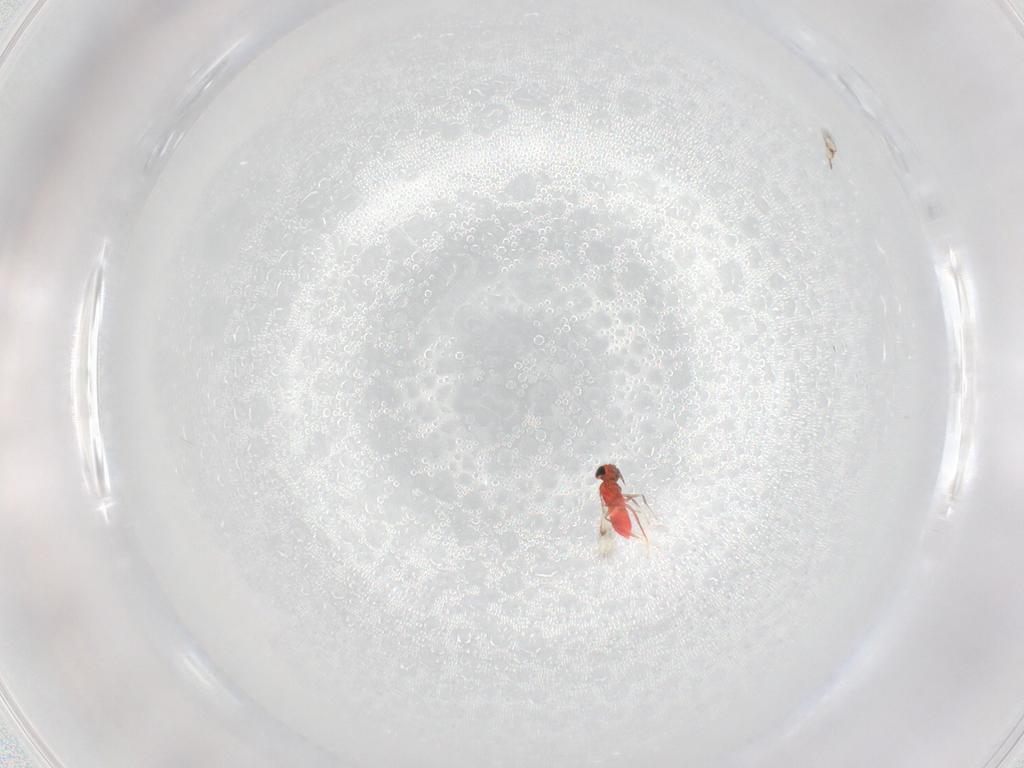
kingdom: Animalia
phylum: Arthropoda
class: Insecta
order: Hymenoptera
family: Trichogrammatidae
